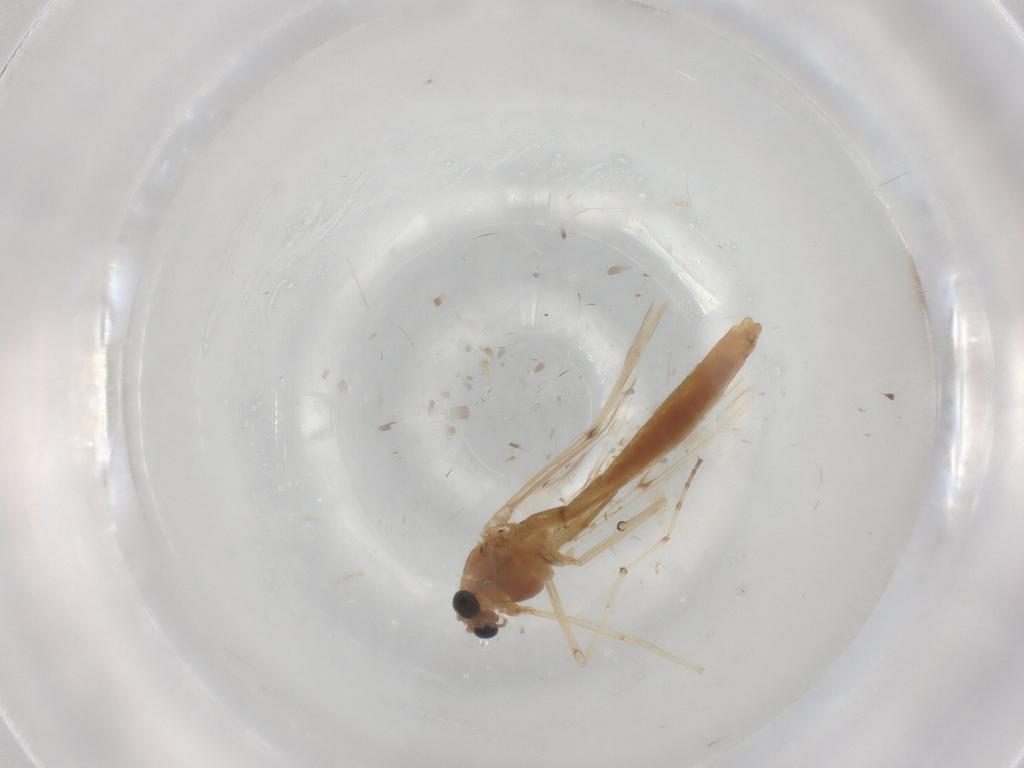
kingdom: Animalia
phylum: Arthropoda
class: Insecta
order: Diptera
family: Chironomidae
